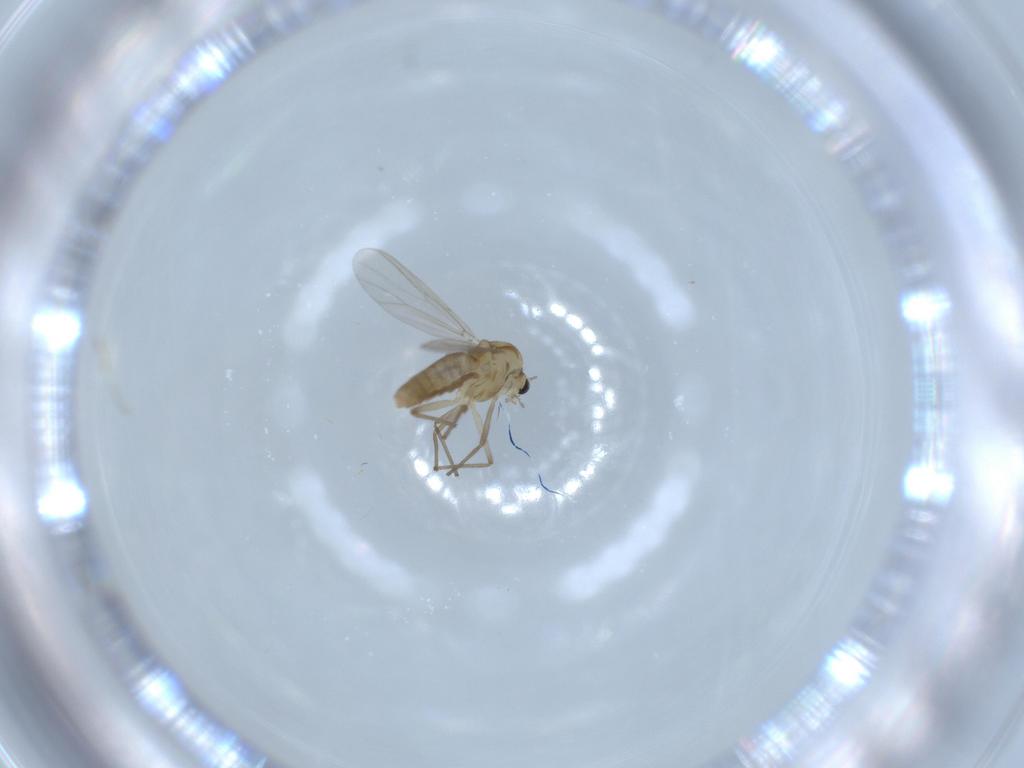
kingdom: Animalia
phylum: Arthropoda
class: Insecta
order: Diptera
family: Chironomidae
